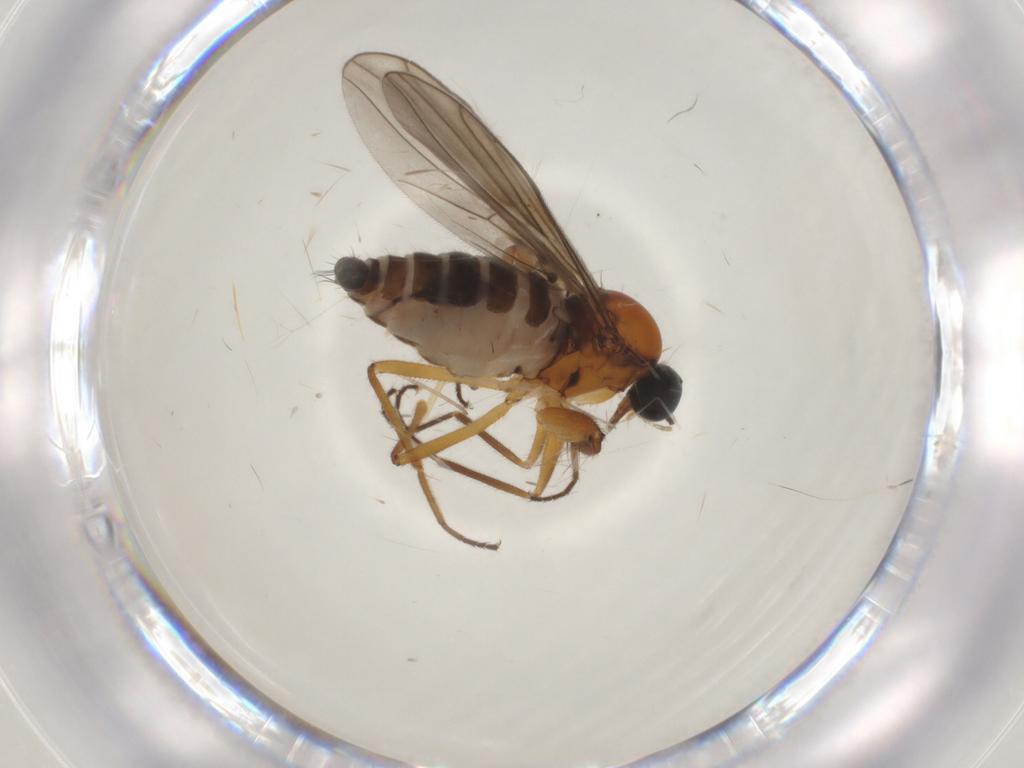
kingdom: Animalia
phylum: Arthropoda
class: Insecta
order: Diptera
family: Hybotidae
